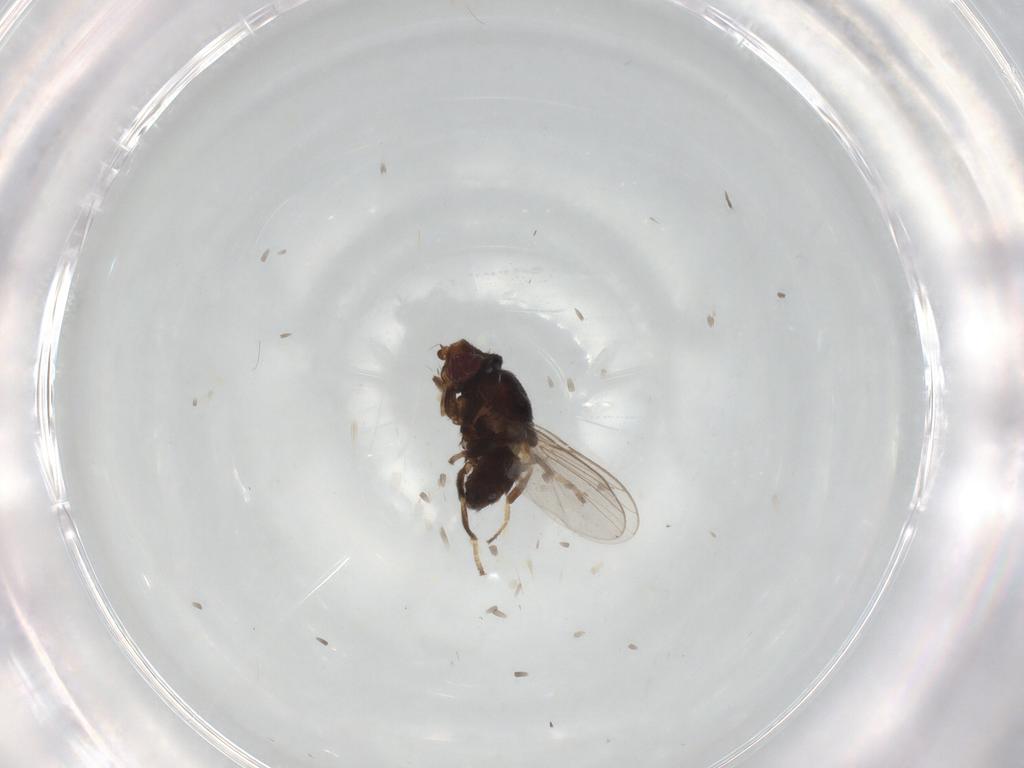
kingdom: Animalia
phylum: Arthropoda
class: Insecta
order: Diptera
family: Chloropidae
